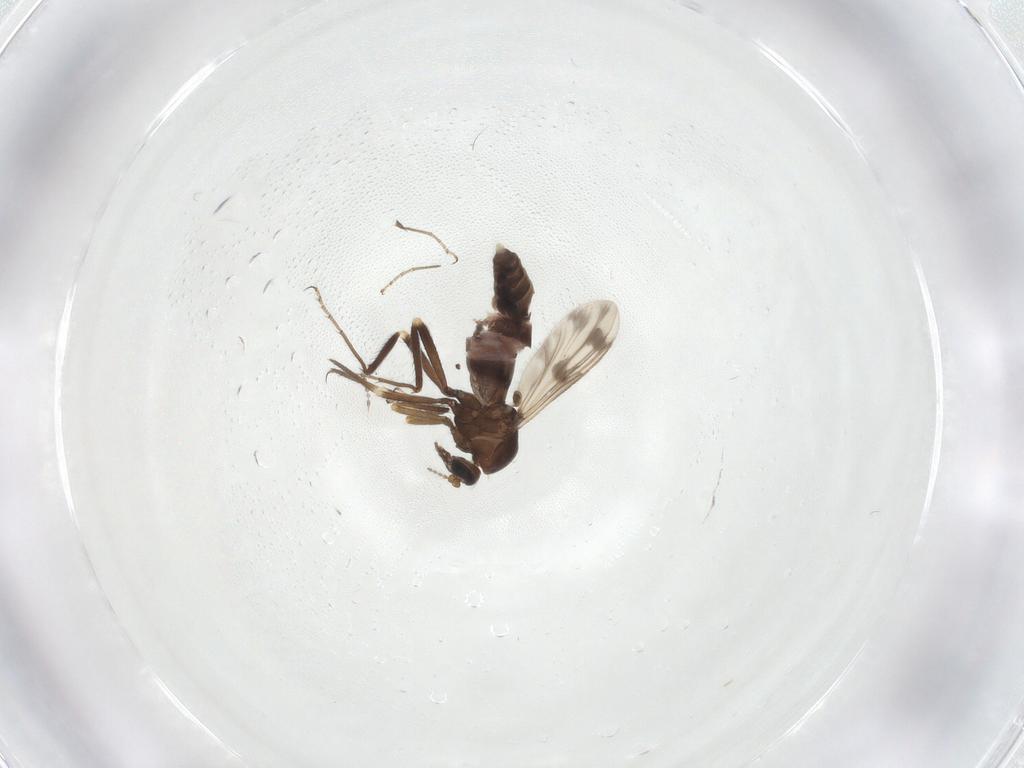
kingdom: Animalia
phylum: Arthropoda
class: Insecta
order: Diptera
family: Ceratopogonidae
